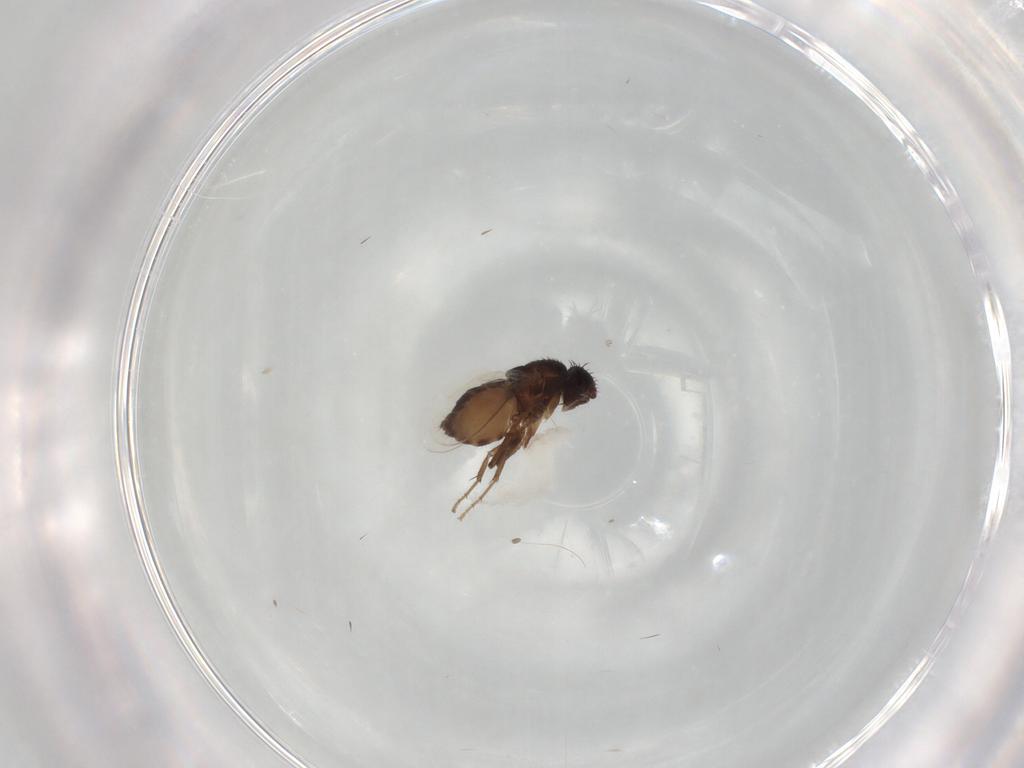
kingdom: Animalia
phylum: Arthropoda
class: Insecta
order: Diptera
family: Sphaeroceridae
